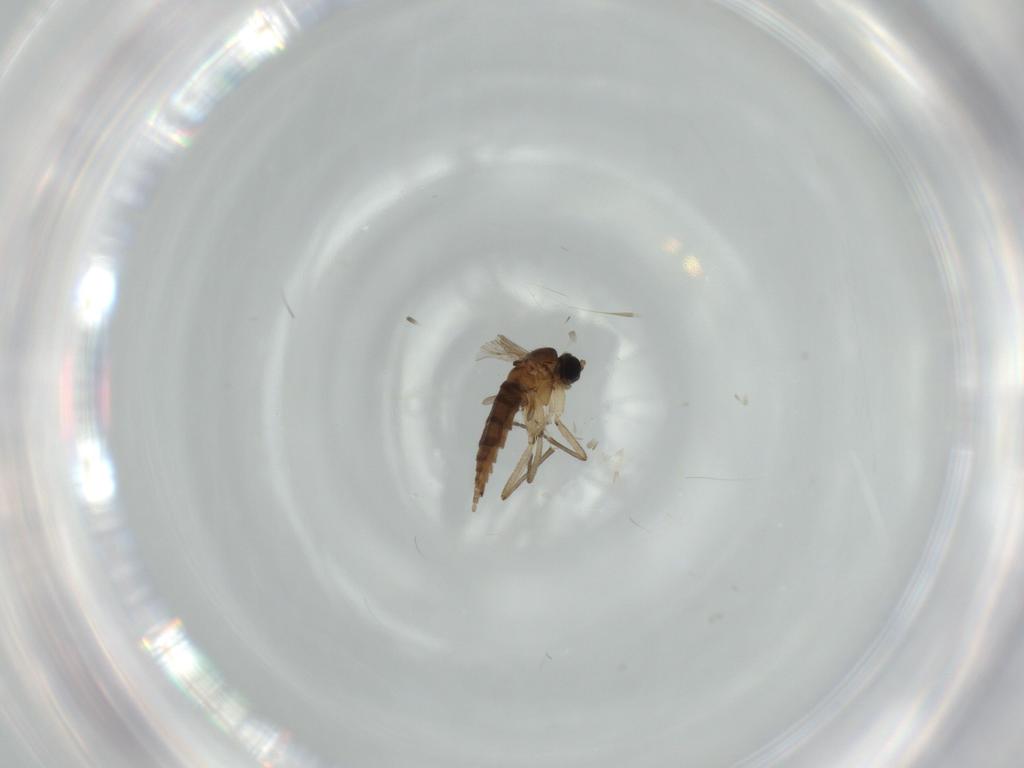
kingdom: Animalia
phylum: Arthropoda
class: Insecta
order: Diptera
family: Sciaridae
